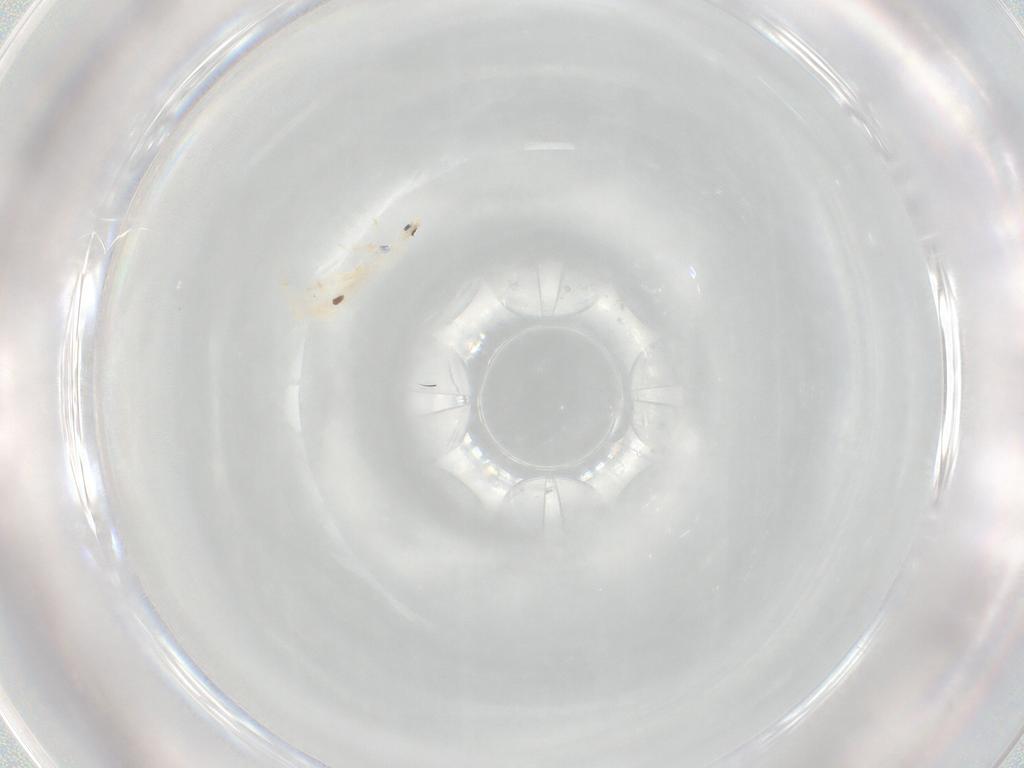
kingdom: Animalia
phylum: Arthropoda
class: Collembola
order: Entomobryomorpha
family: Entomobryidae
